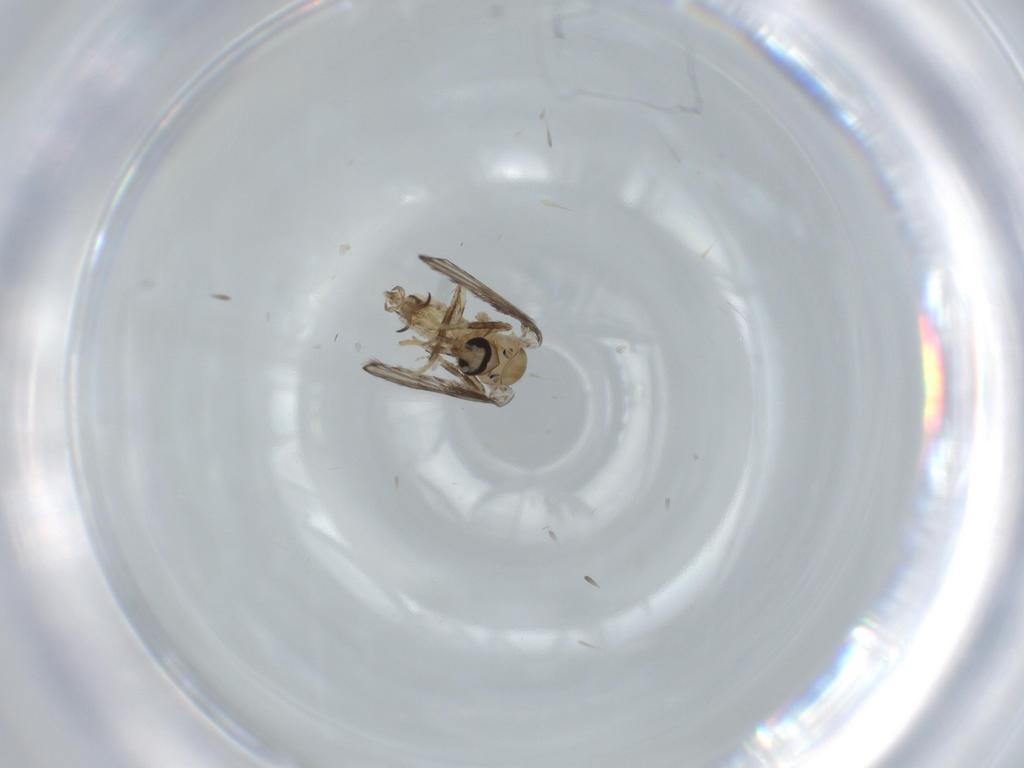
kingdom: Animalia
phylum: Arthropoda
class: Insecta
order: Diptera
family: Psychodidae
